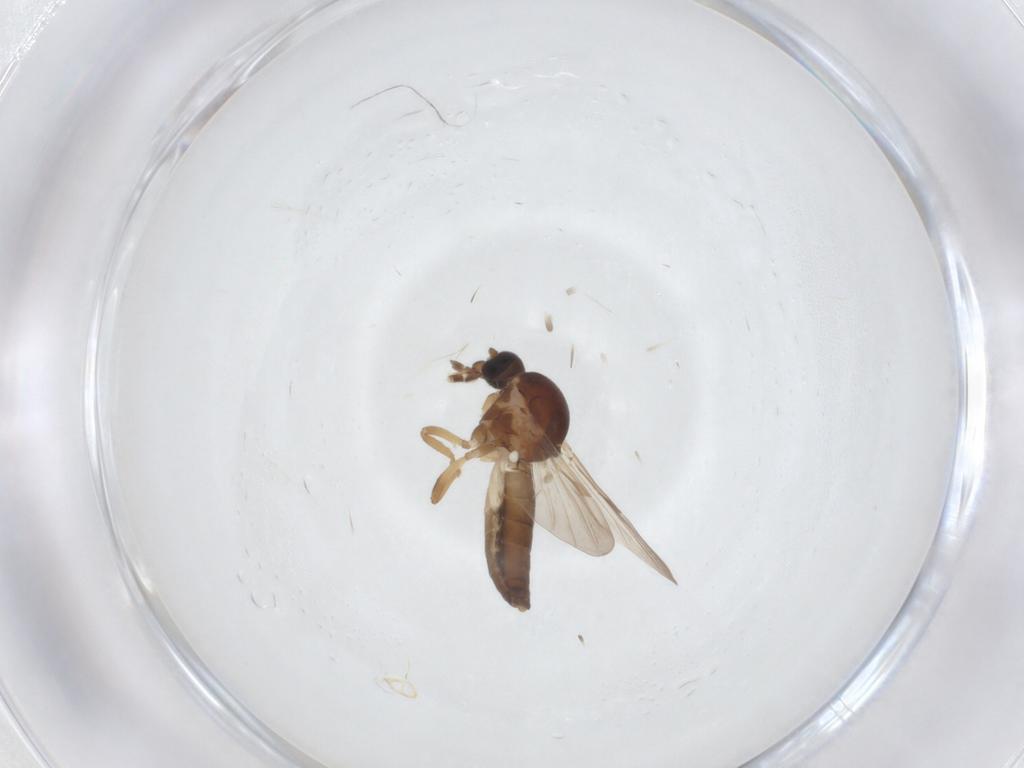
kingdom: Animalia
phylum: Arthropoda
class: Insecta
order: Diptera
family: Ceratopogonidae
